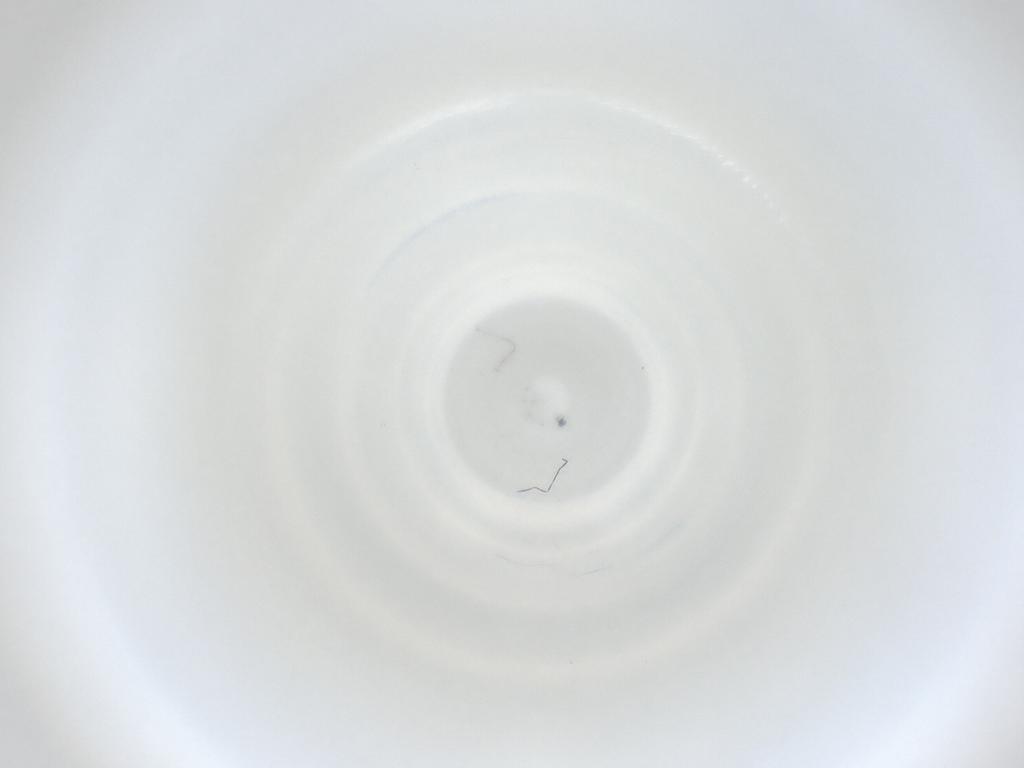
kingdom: Animalia
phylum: Arthropoda
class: Insecta
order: Diptera
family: Cecidomyiidae
